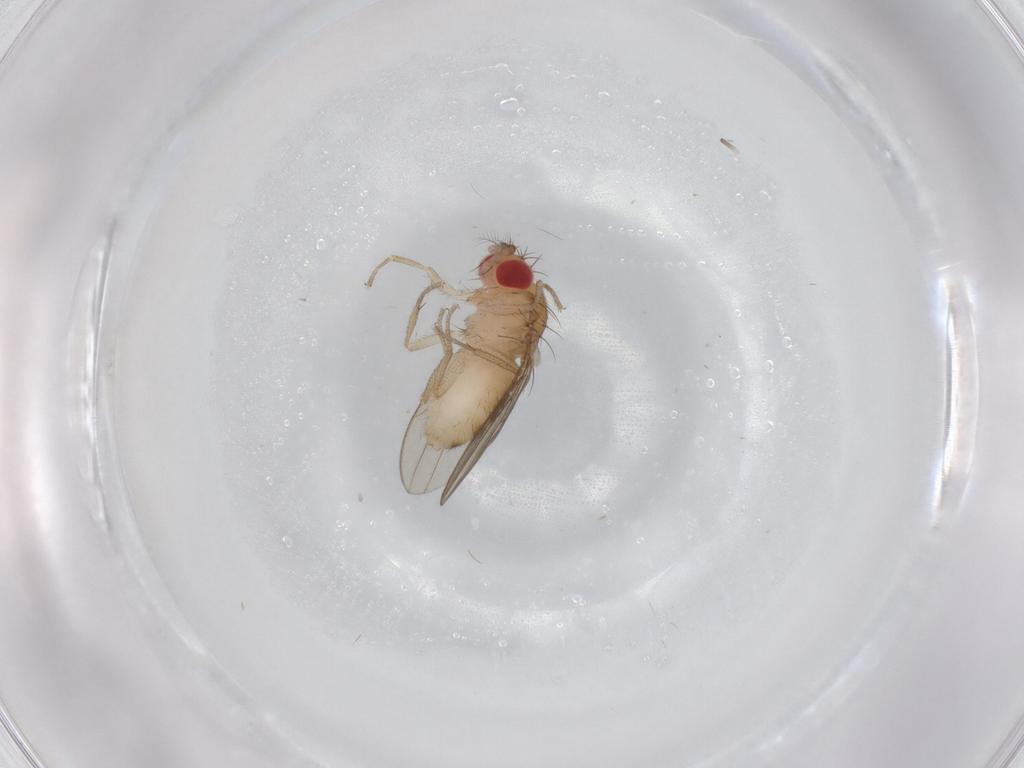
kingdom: Animalia
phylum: Arthropoda
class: Insecta
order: Diptera
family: Drosophilidae
